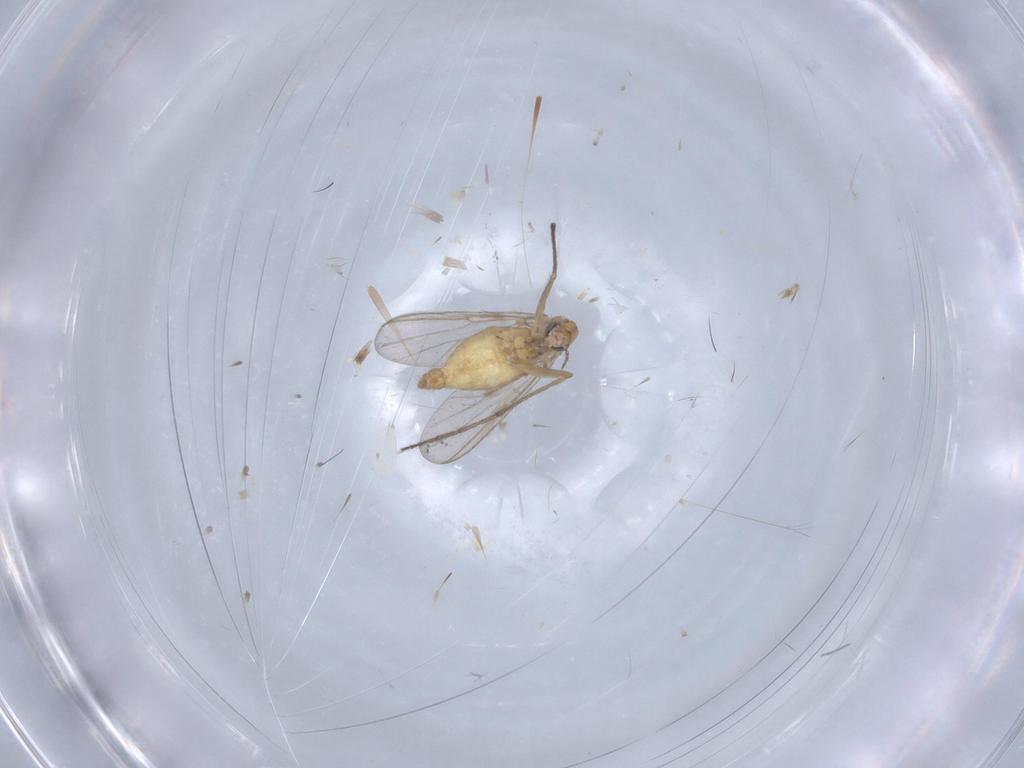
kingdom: Animalia
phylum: Arthropoda
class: Insecta
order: Diptera
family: Chironomidae
